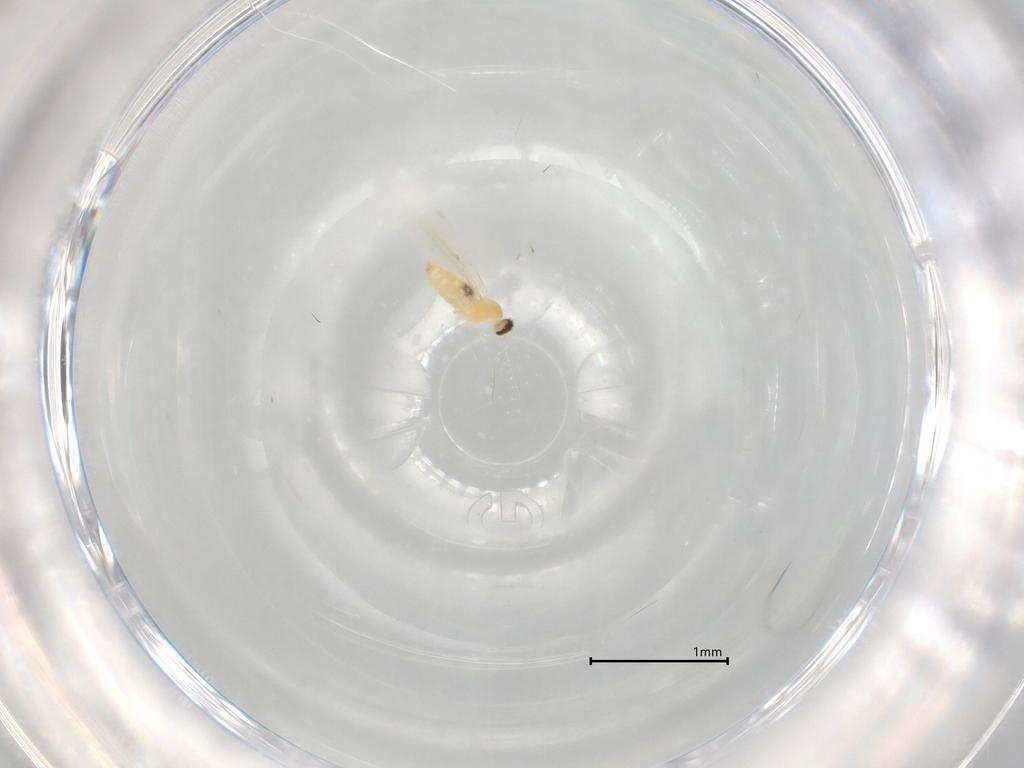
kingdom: Animalia
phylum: Arthropoda
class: Insecta
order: Diptera
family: Cecidomyiidae
